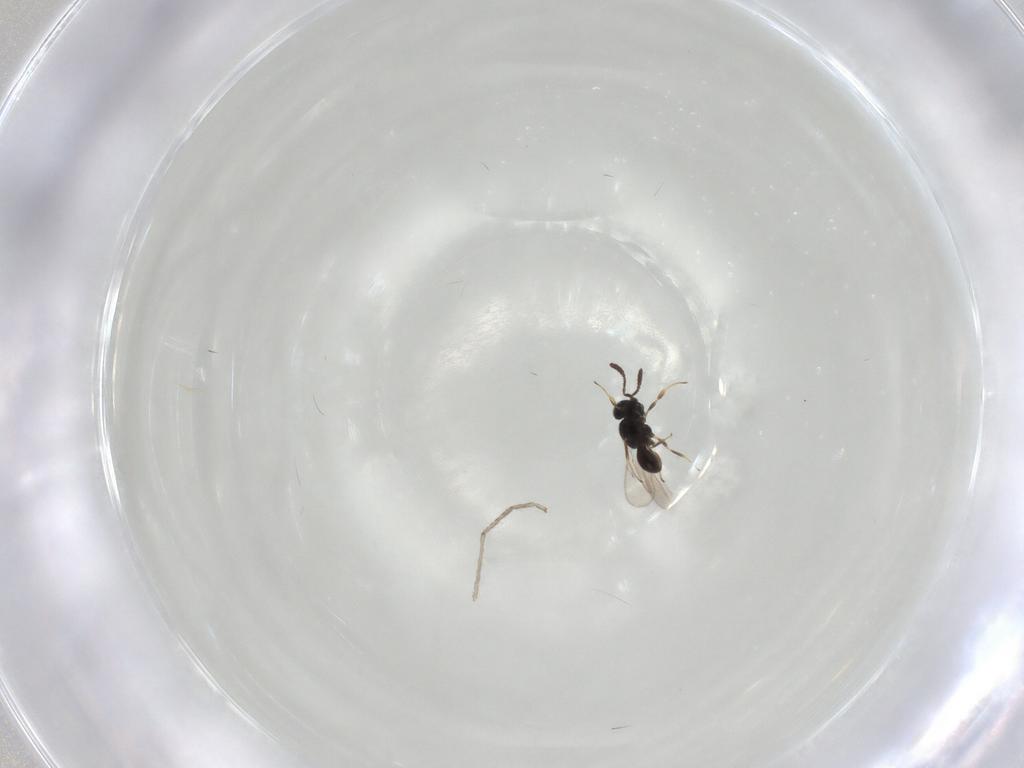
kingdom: Animalia
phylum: Arthropoda
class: Insecta
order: Hymenoptera
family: Scelionidae
